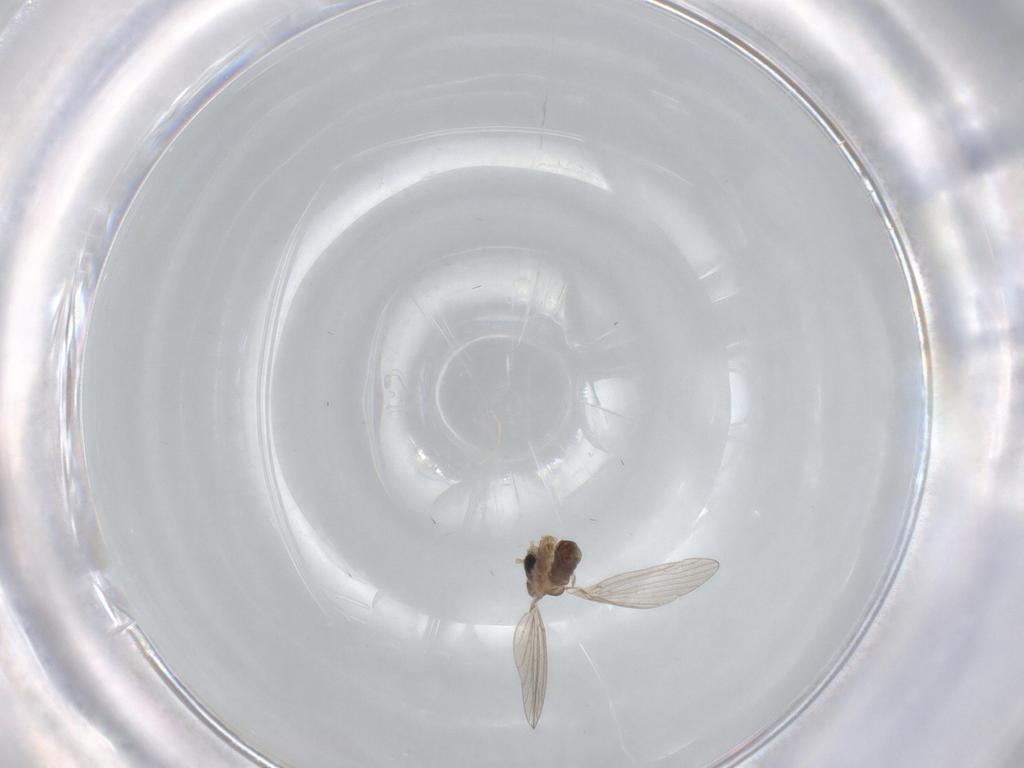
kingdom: Animalia
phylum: Arthropoda
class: Insecta
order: Diptera
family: Psychodidae
